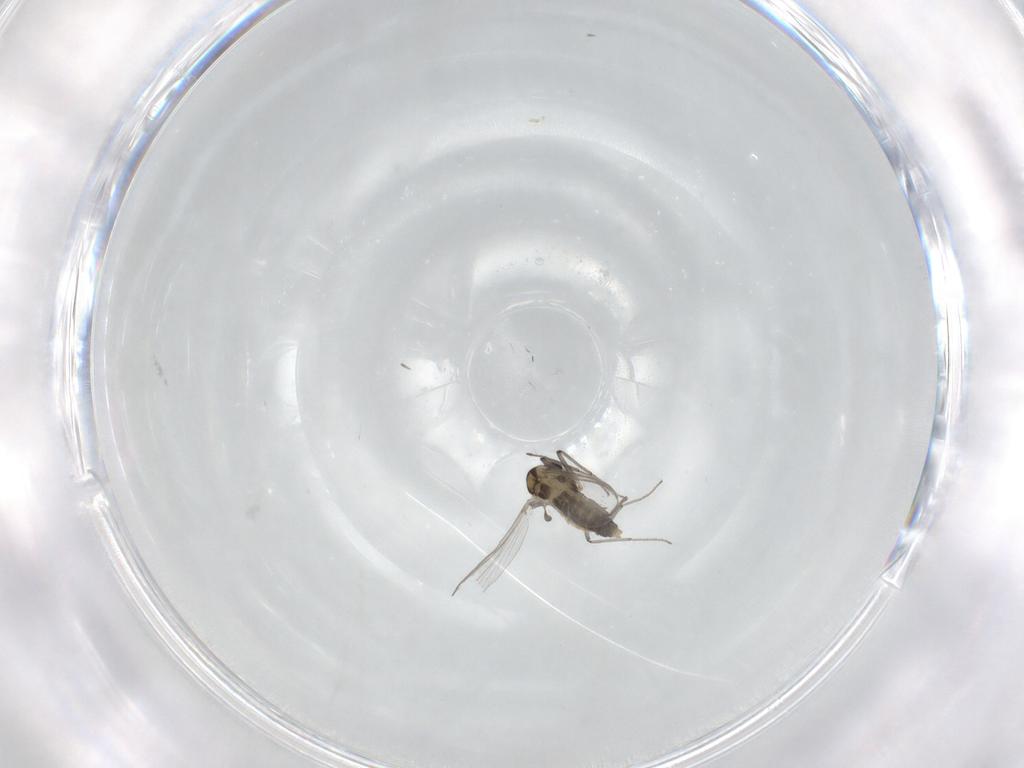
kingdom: Animalia
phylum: Arthropoda
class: Insecta
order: Diptera
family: Chironomidae
